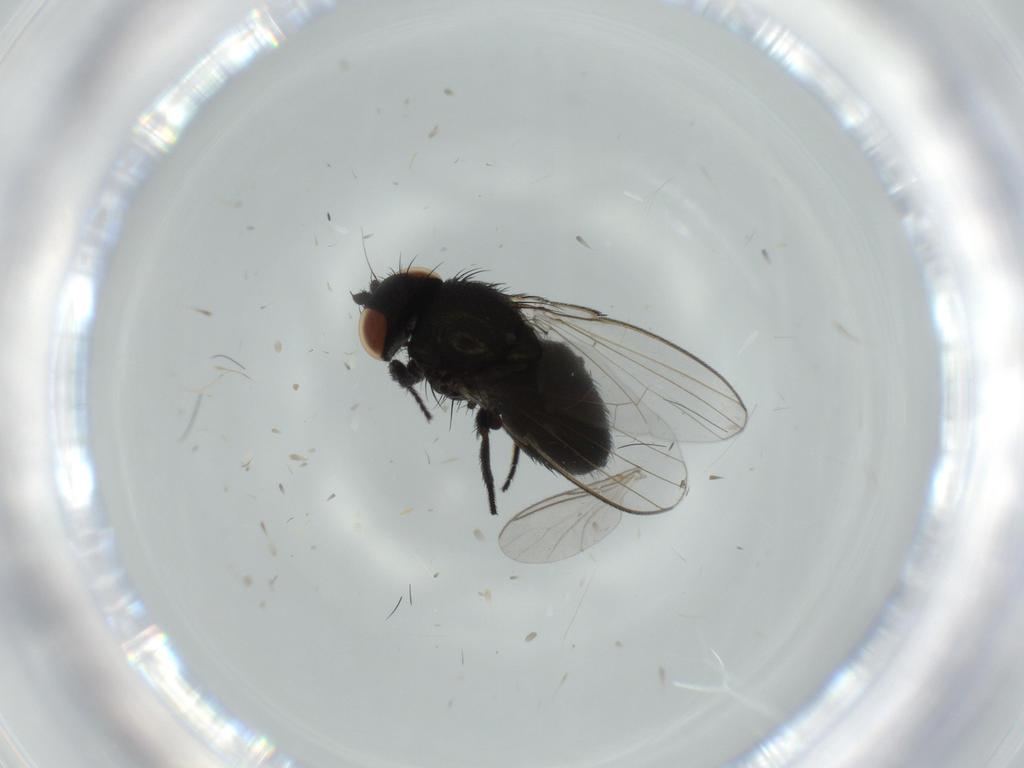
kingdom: Animalia
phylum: Arthropoda
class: Insecta
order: Diptera
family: Milichiidae
